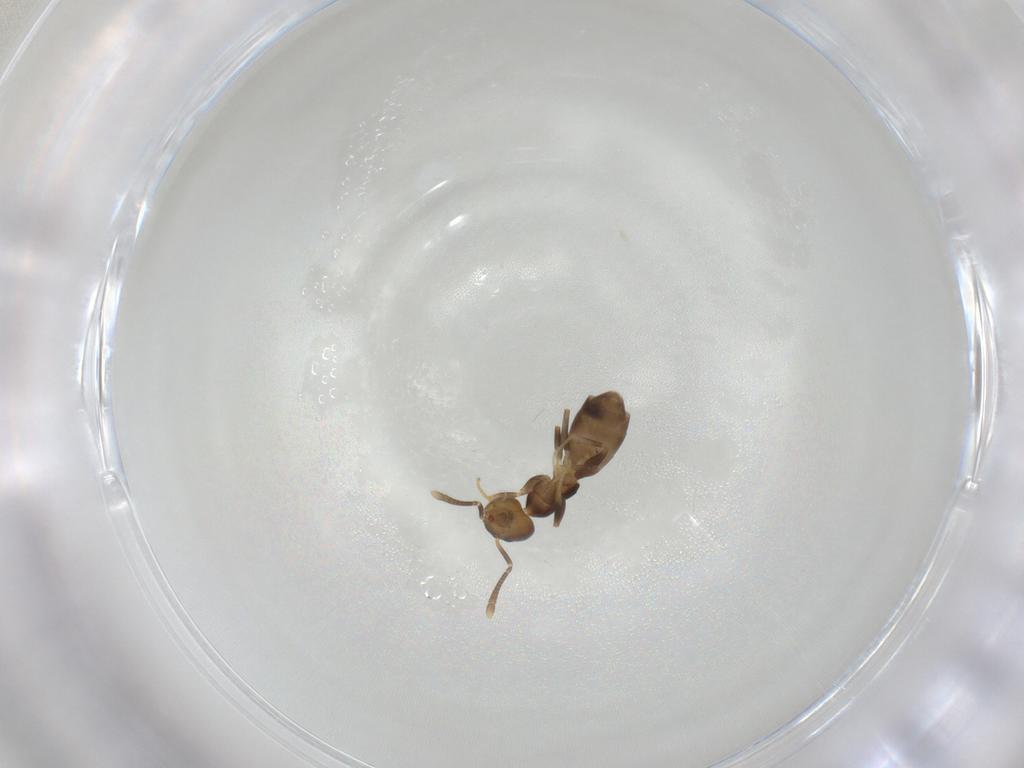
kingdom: Animalia
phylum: Arthropoda
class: Insecta
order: Hymenoptera
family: Formicidae
